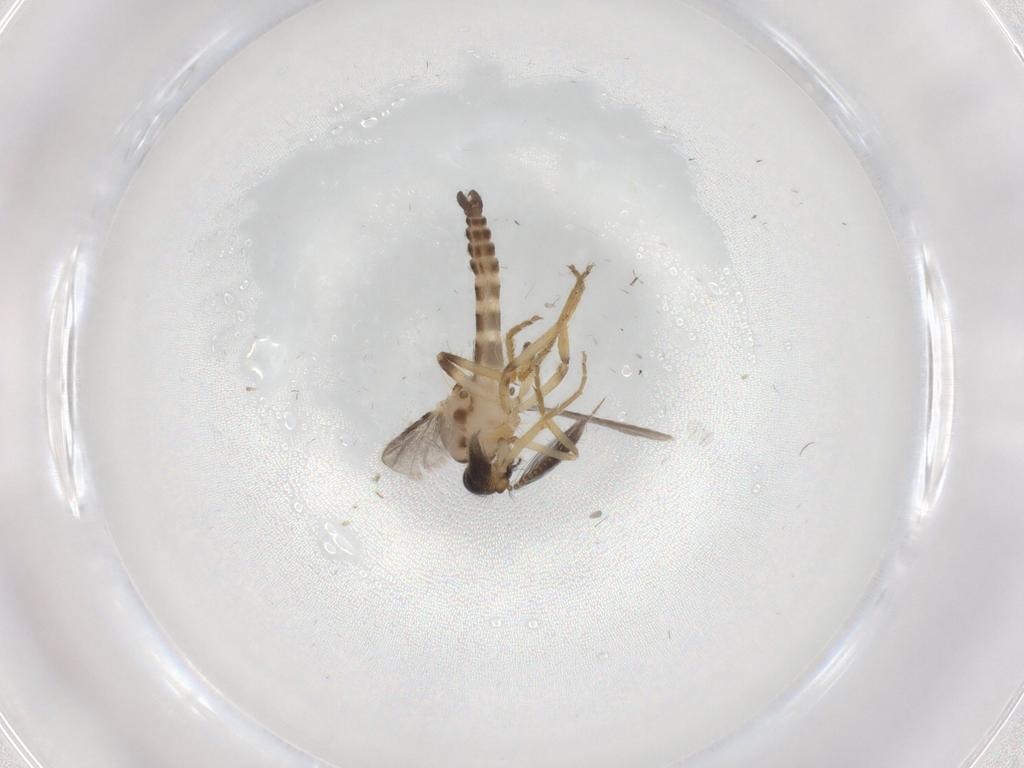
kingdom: Animalia
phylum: Arthropoda
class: Insecta
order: Diptera
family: Ceratopogonidae
